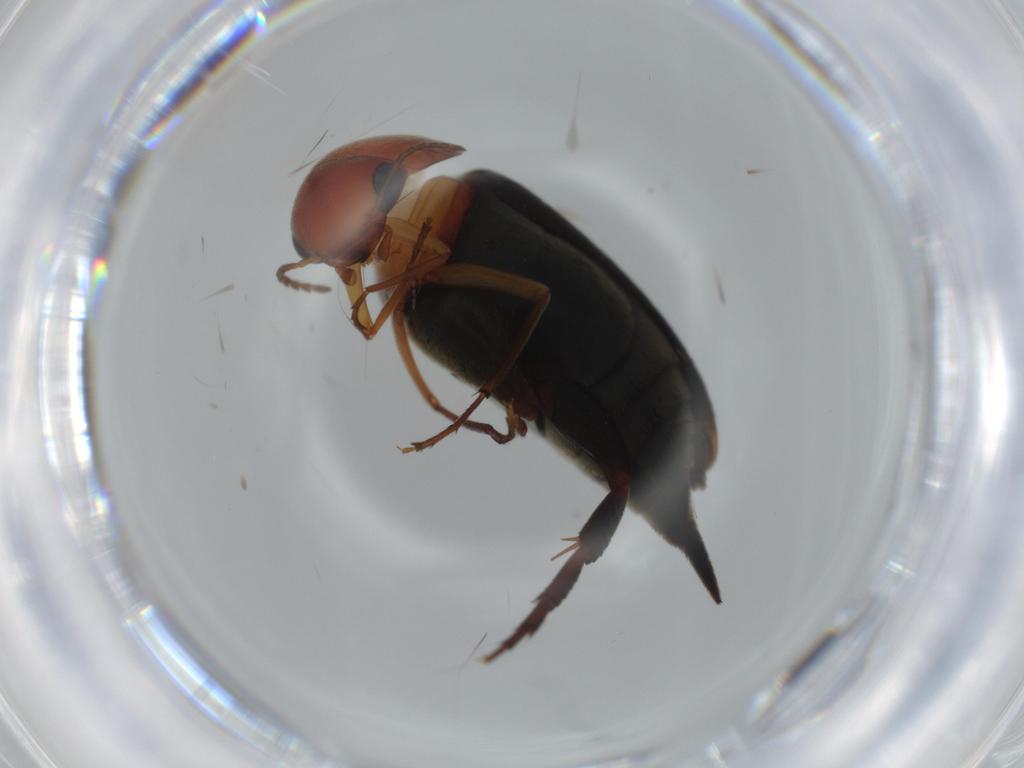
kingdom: Animalia
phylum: Arthropoda
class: Insecta
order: Coleoptera
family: Mordellidae
